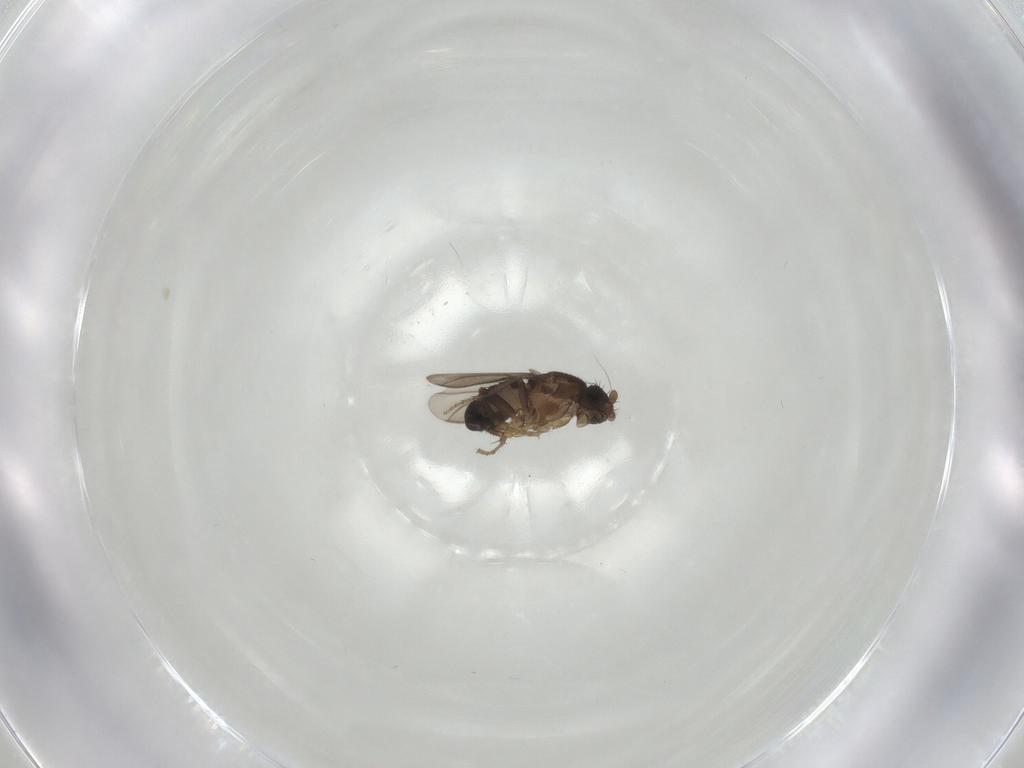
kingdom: Animalia
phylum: Arthropoda
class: Insecta
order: Diptera
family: Sphaeroceridae
